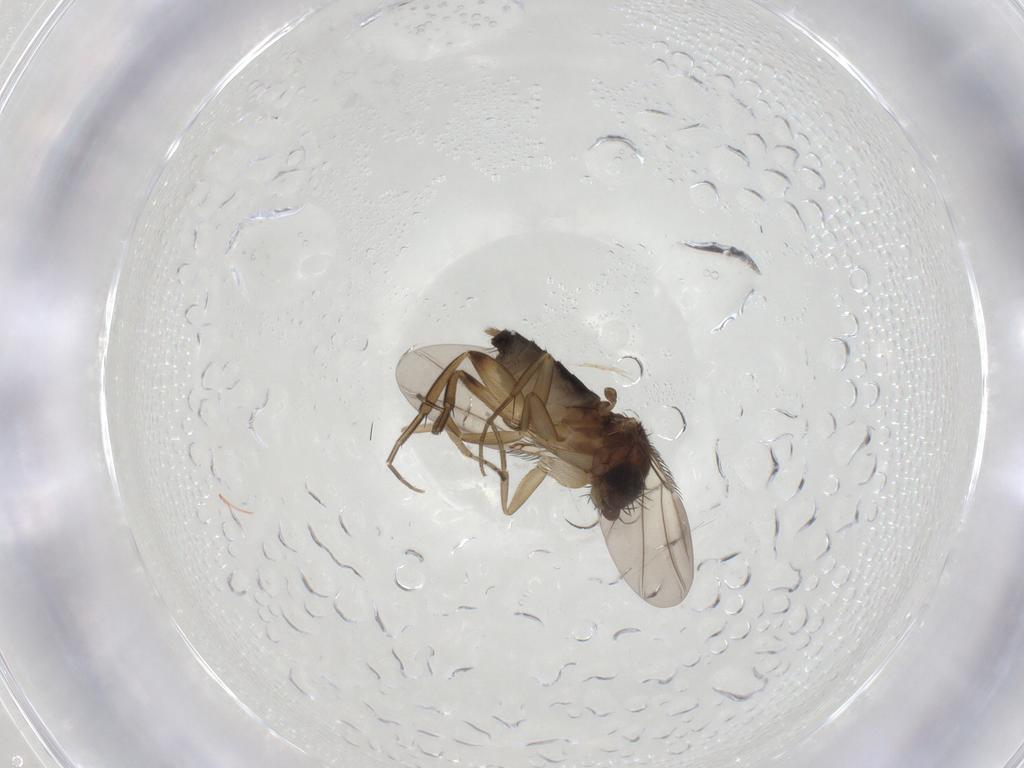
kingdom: Animalia
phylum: Arthropoda
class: Insecta
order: Diptera
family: Phoridae
